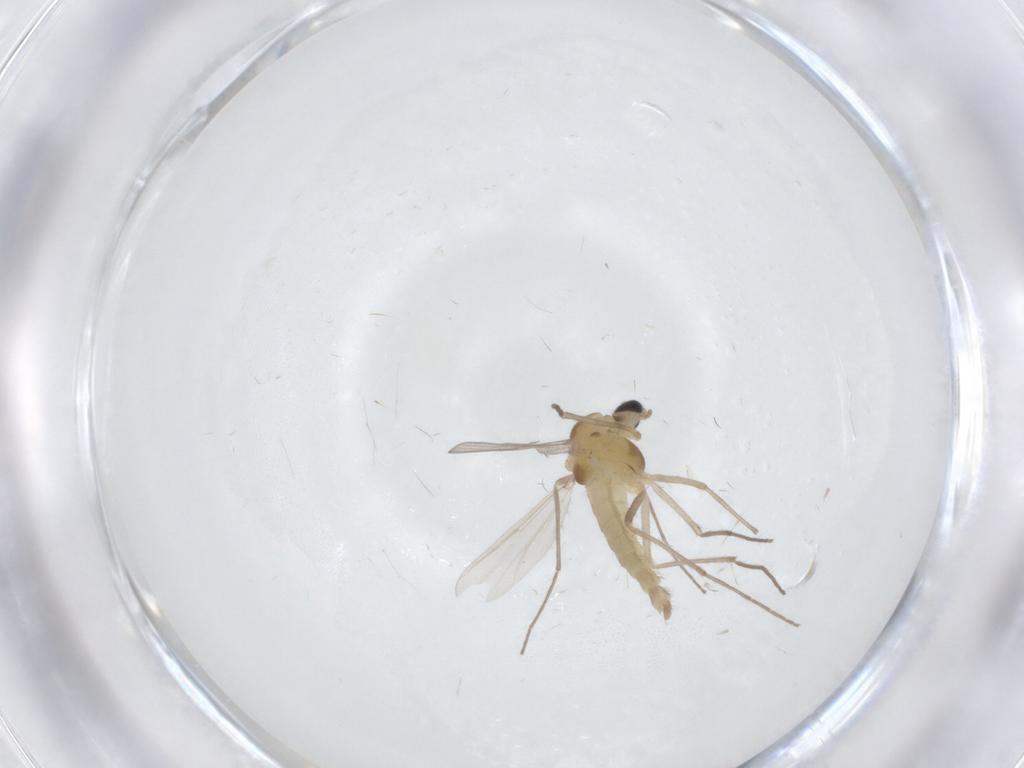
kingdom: Animalia
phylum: Arthropoda
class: Insecta
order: Diptera
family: Chironomidae
